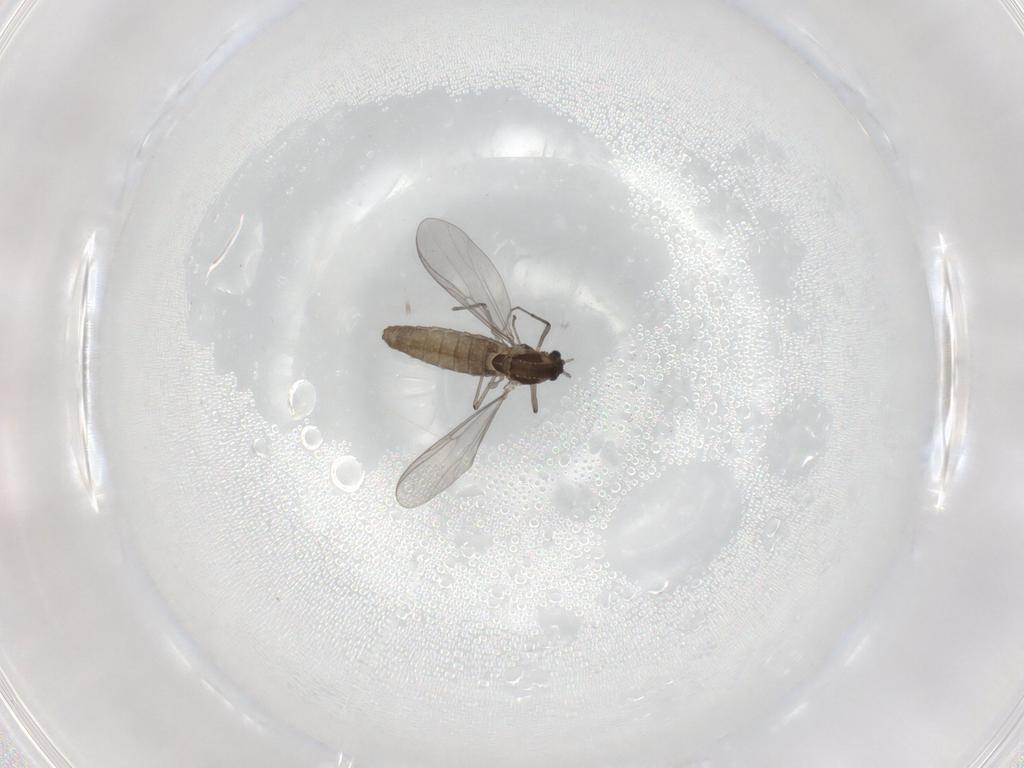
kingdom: Animalia
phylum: Arthropoda
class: Insecta
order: Diptera
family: Chironomidae
